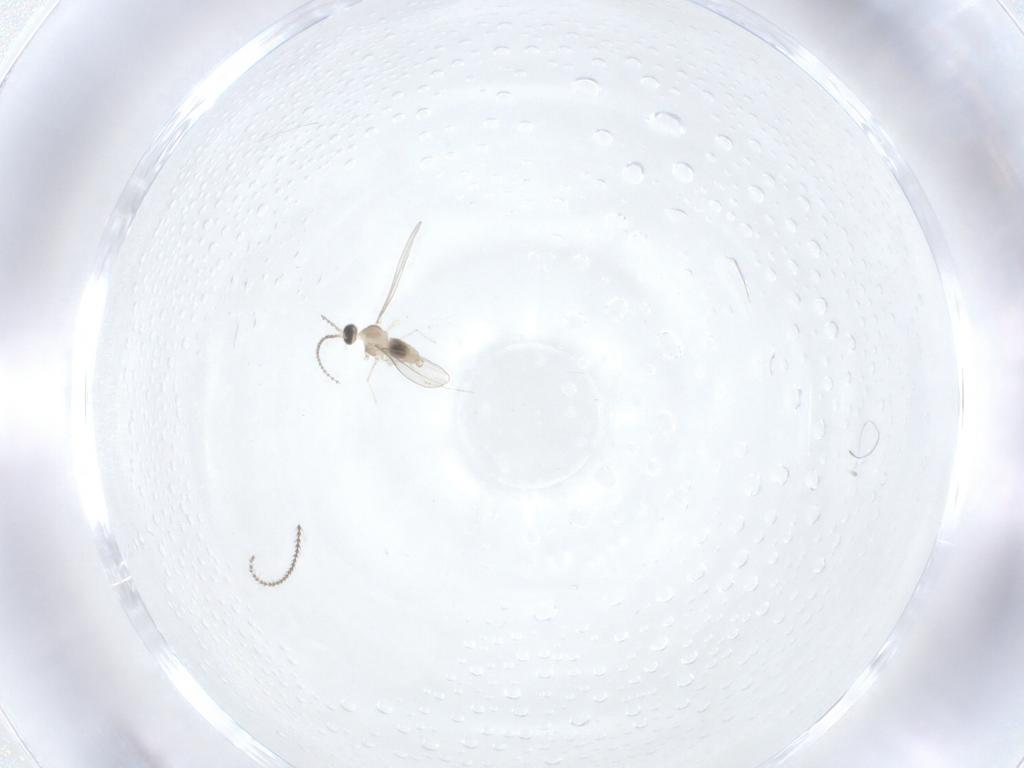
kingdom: Animalia
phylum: Arthropoda
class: Insecta
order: Diptera
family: Cecidomyiidae
